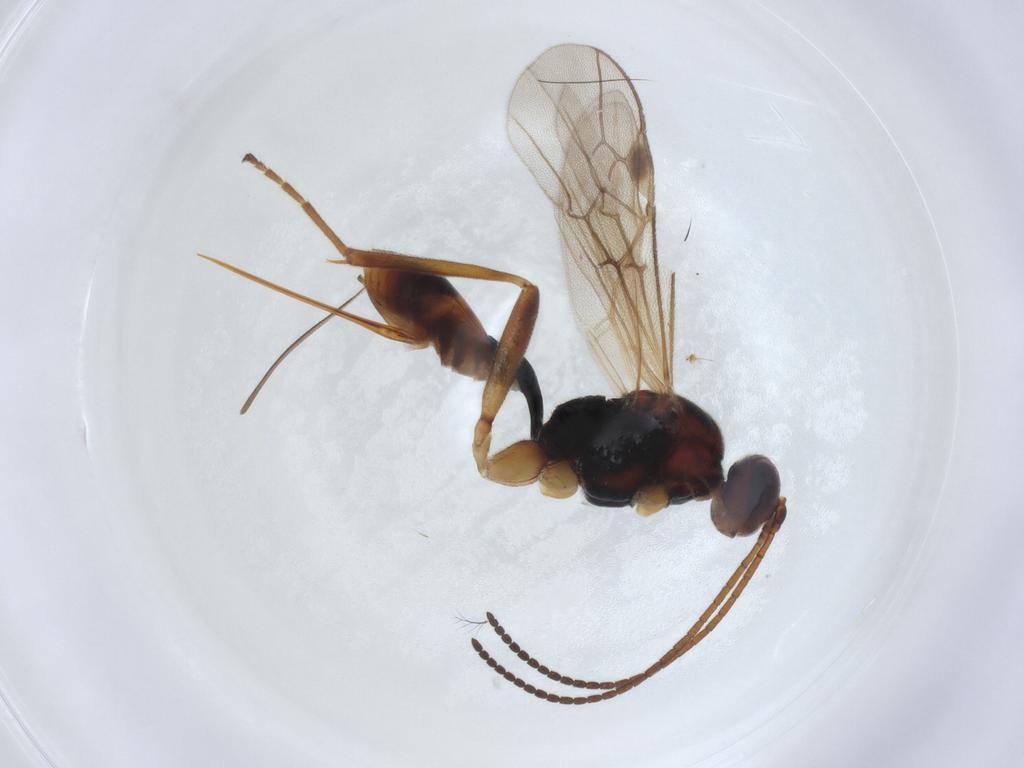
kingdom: Animalia
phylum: Arthropoda
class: Insecta
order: Hymenoptera
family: Braconidae
